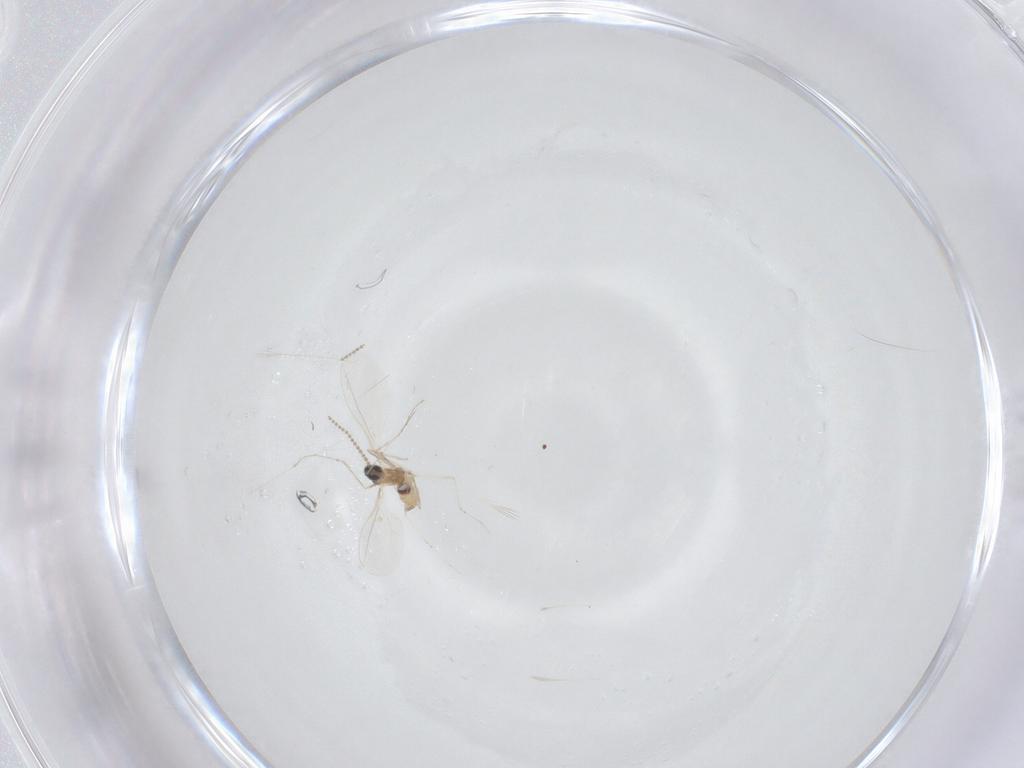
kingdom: Animalia
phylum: Arthropoda
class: Insecta
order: Diptera
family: Cecidomyiidae
